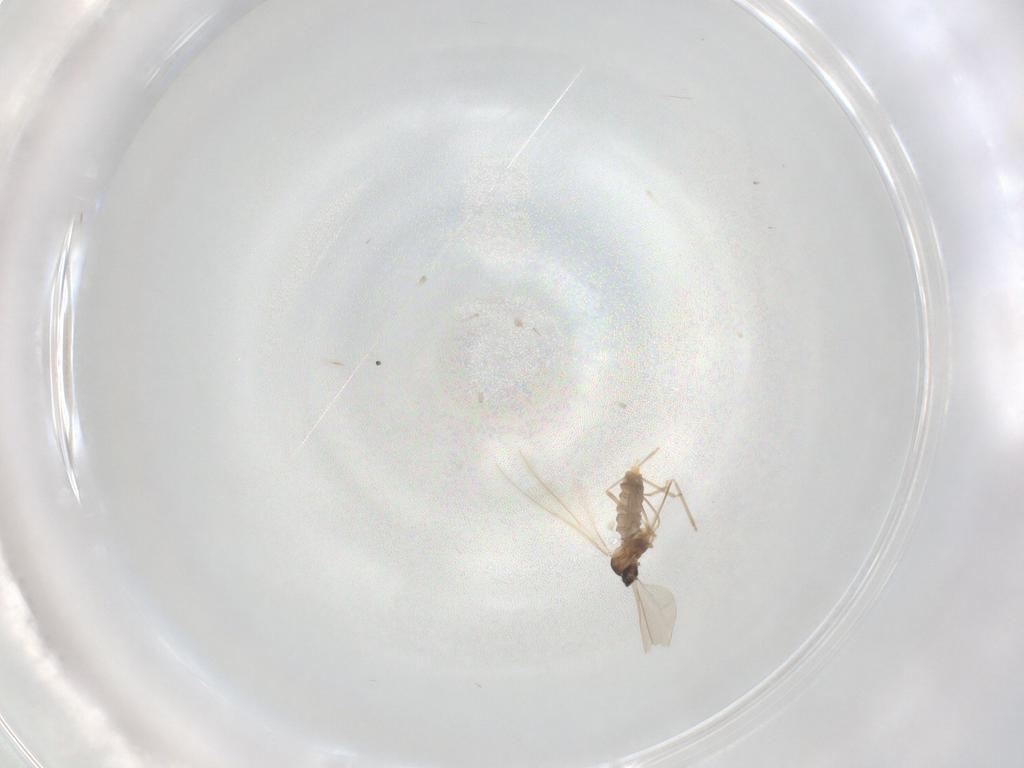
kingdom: Animalia
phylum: Arthropoda
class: Insecta
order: Diptera
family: Cecidomyiidae
